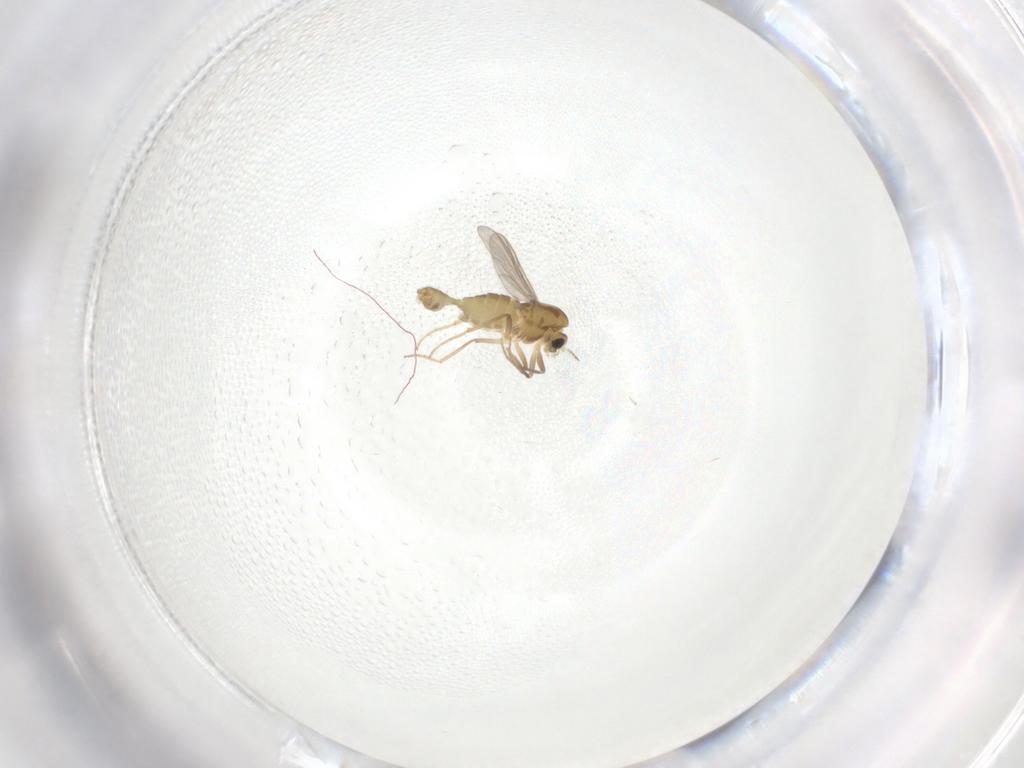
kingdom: Animalia
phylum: Arthropoda
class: Insecta
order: Diptera
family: Chironomidae
